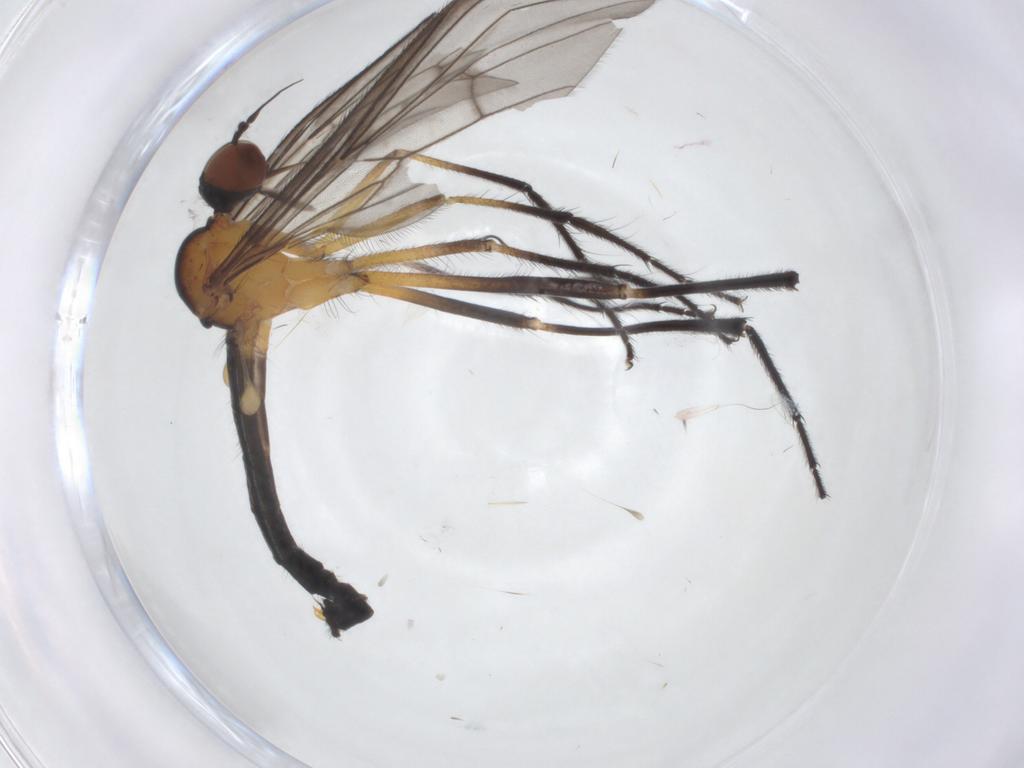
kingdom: Animalia
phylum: Arthropoda
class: Insecta
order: Diptera
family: Empididae
